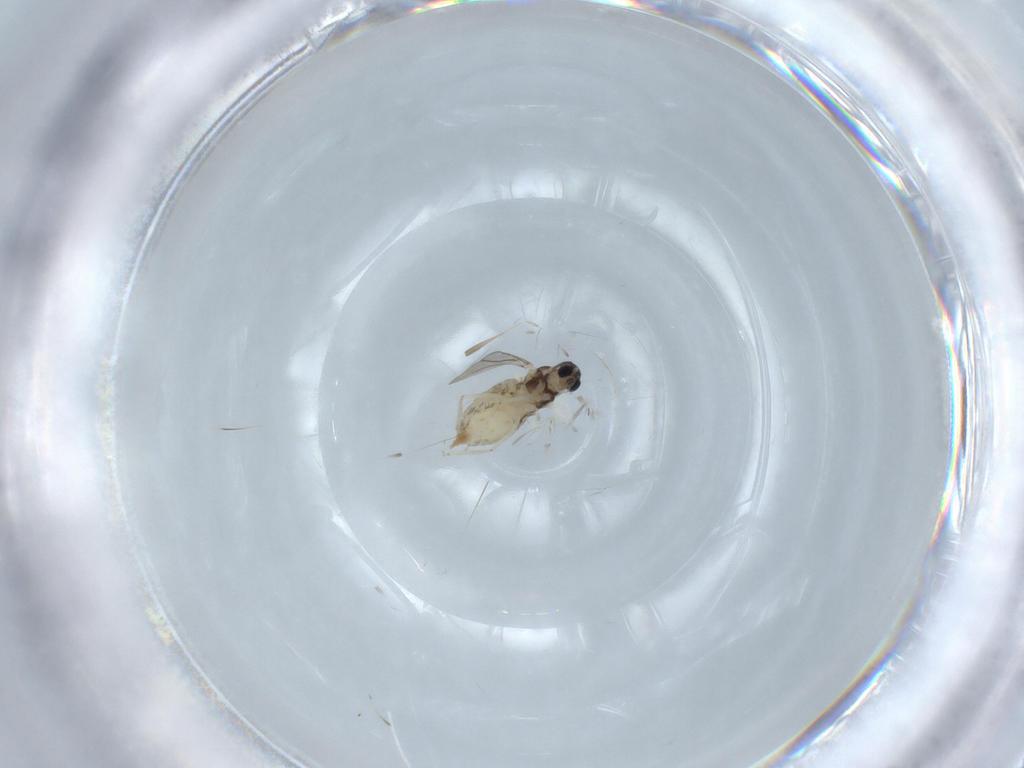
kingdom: Animalia
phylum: Arthropoda
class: Insecta
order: Diptera
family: Cecidomyiidae
